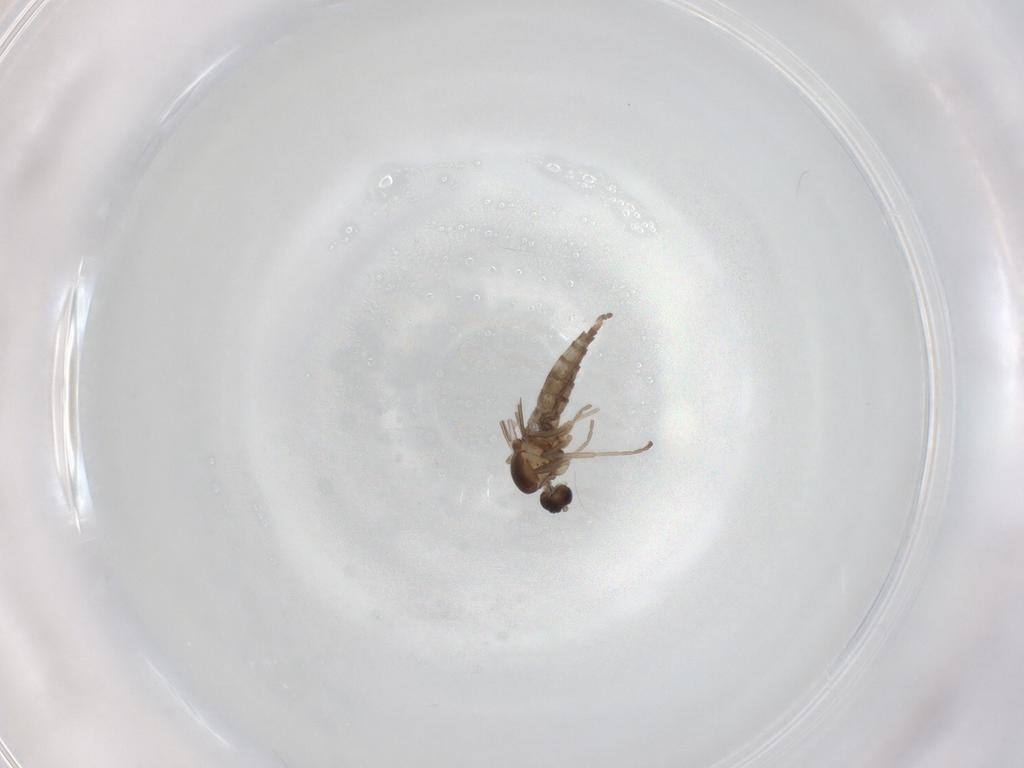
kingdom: Animalia
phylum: Arthropoda
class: Insecta
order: Diptera
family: Cecidomyiidae
